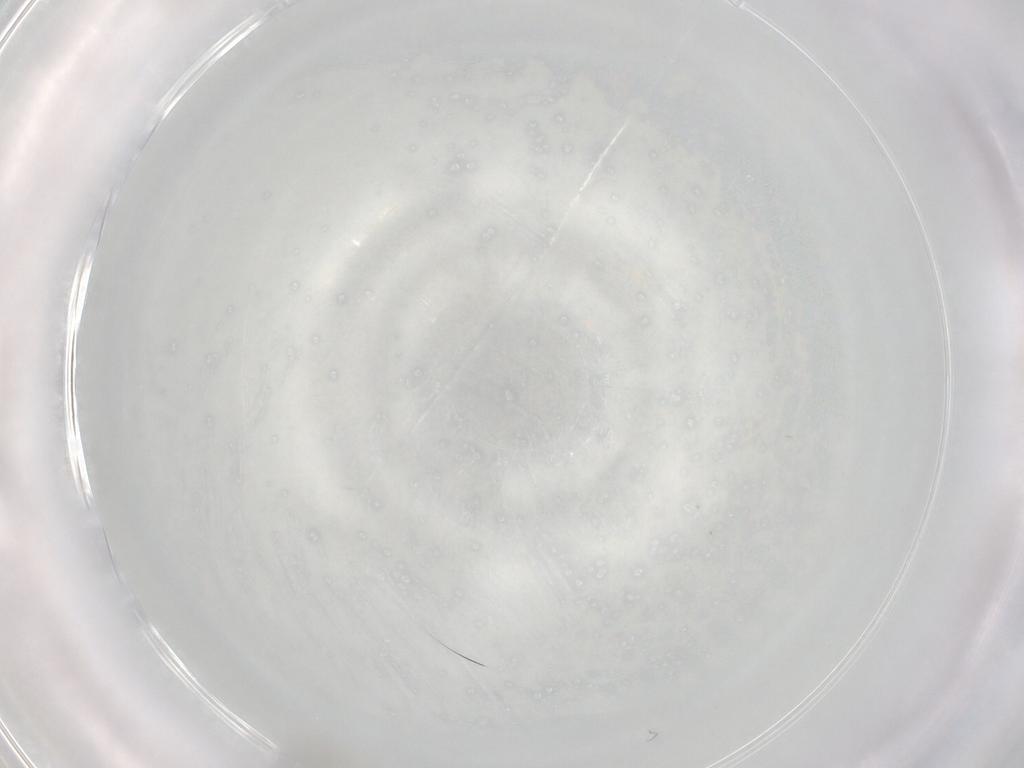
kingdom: Animalia
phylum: Arthropoda
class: Insecta
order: Diptera
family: Cecidomyiidae
